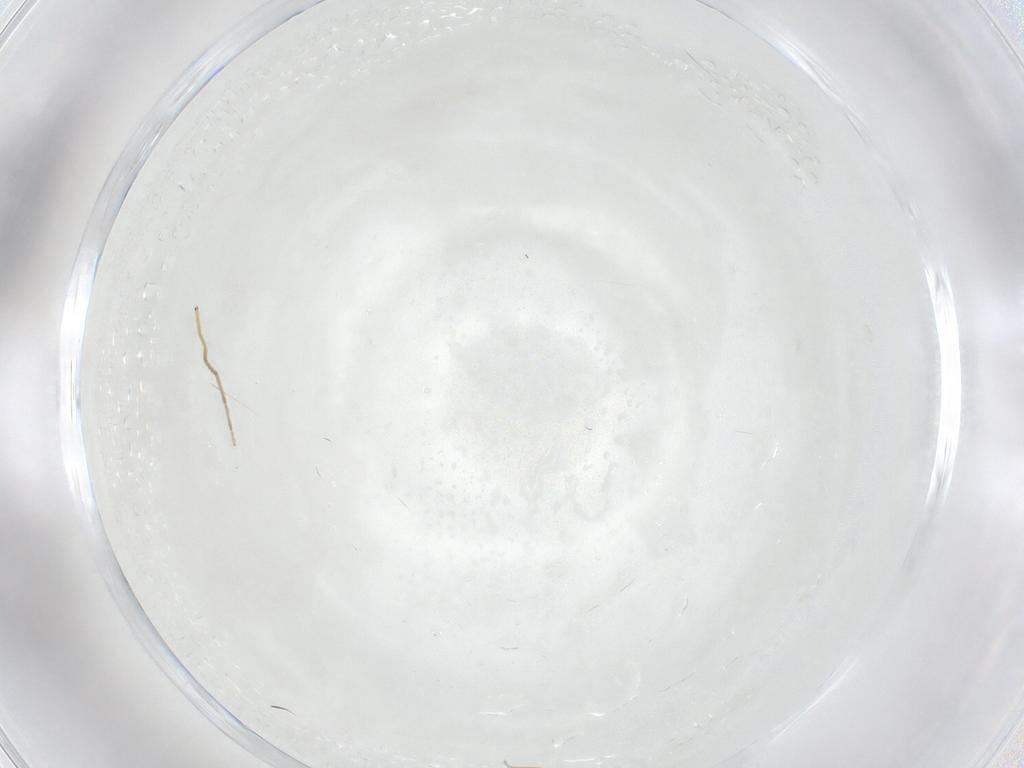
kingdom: Animalia
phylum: Arthropoda
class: Insecta
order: Diptera
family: Chironomidae
